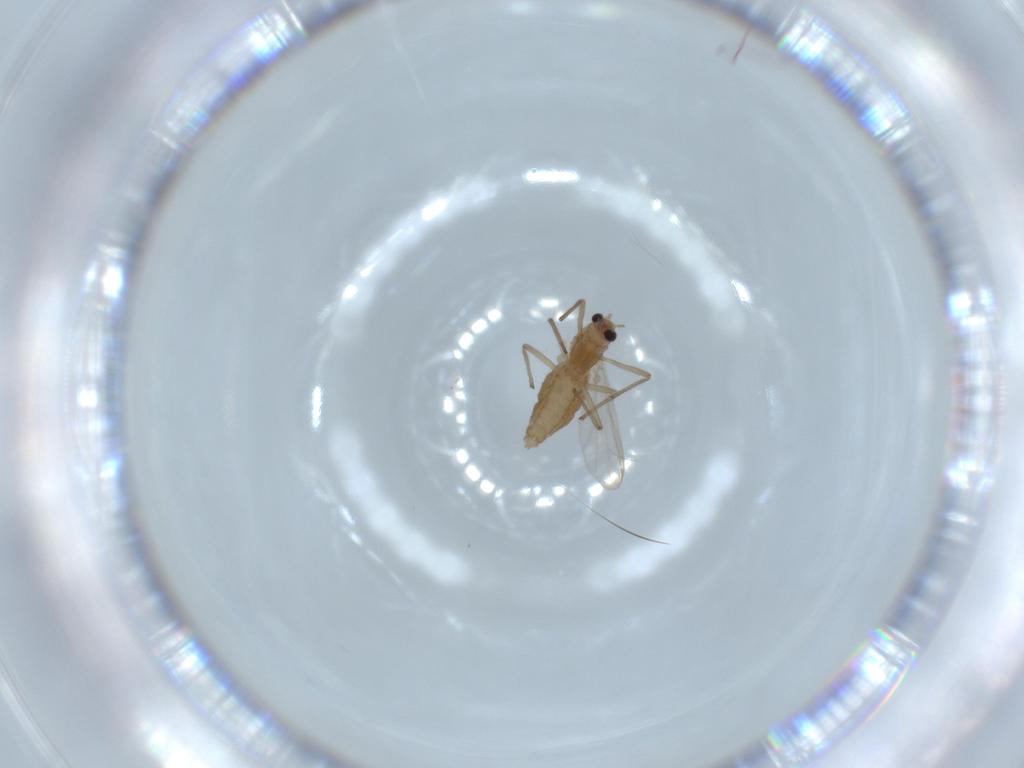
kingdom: Animalia
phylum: Arthropoda
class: Insecta
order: Diptera
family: Chironomidae
